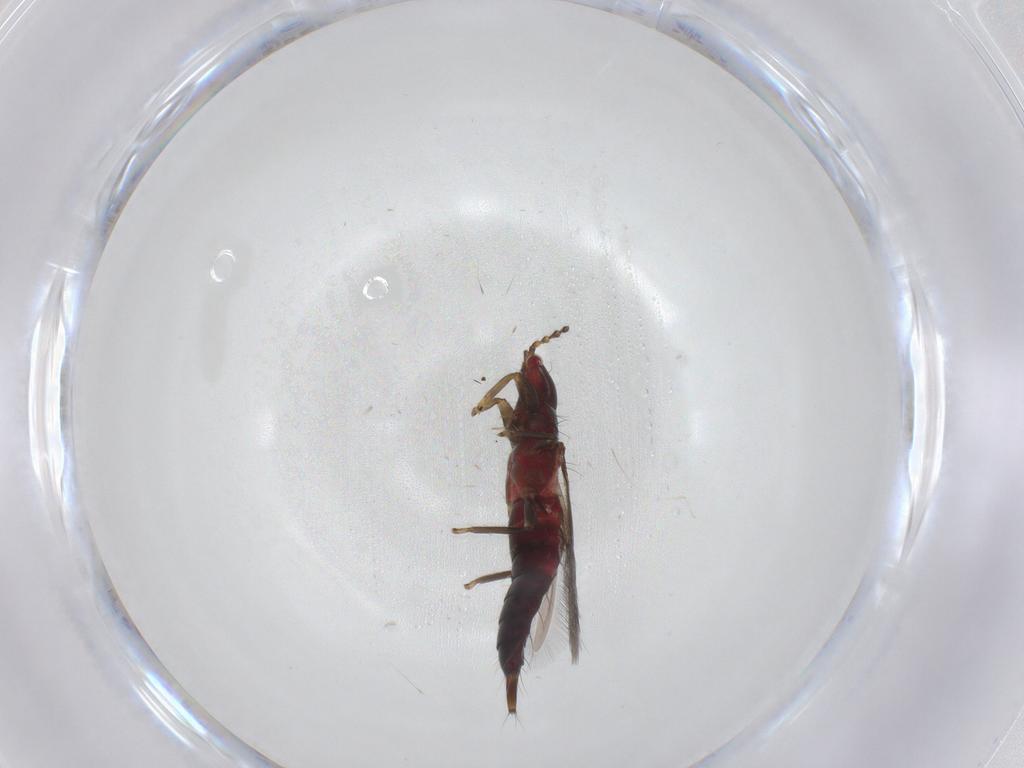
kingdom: Animalia
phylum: Arthropoda
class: Insecta
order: Thysanoptera
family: Phlaeothripidae
